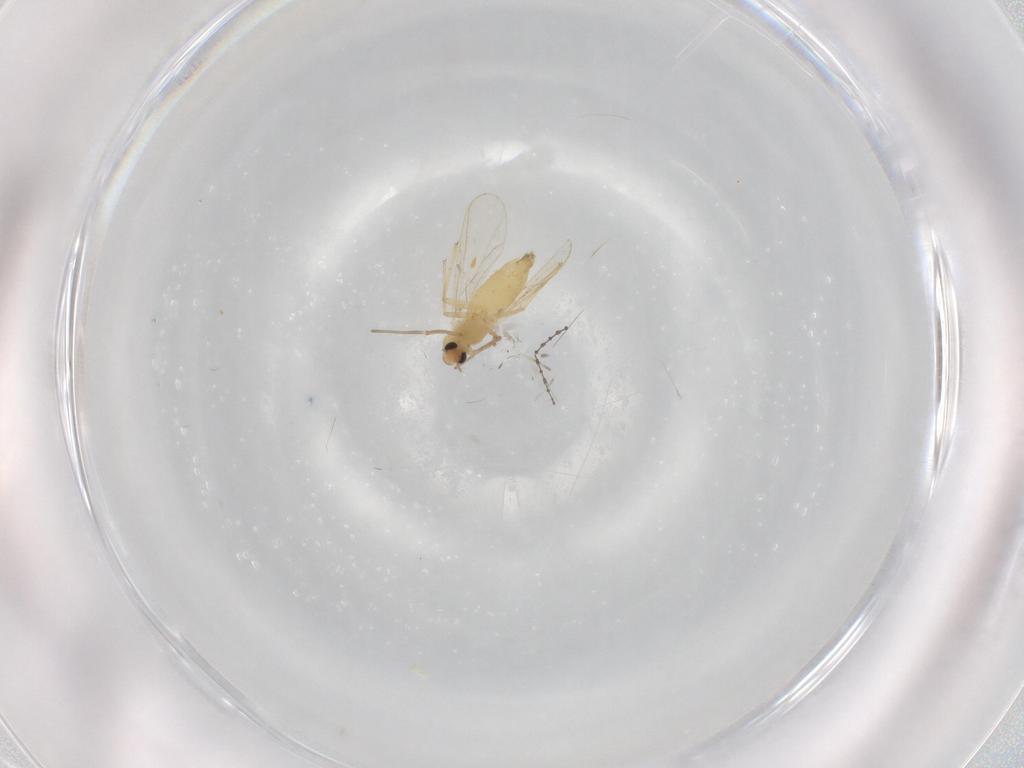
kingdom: Animalia
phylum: Arthropoda
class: Insecta
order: Diptera
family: Chironomidae
